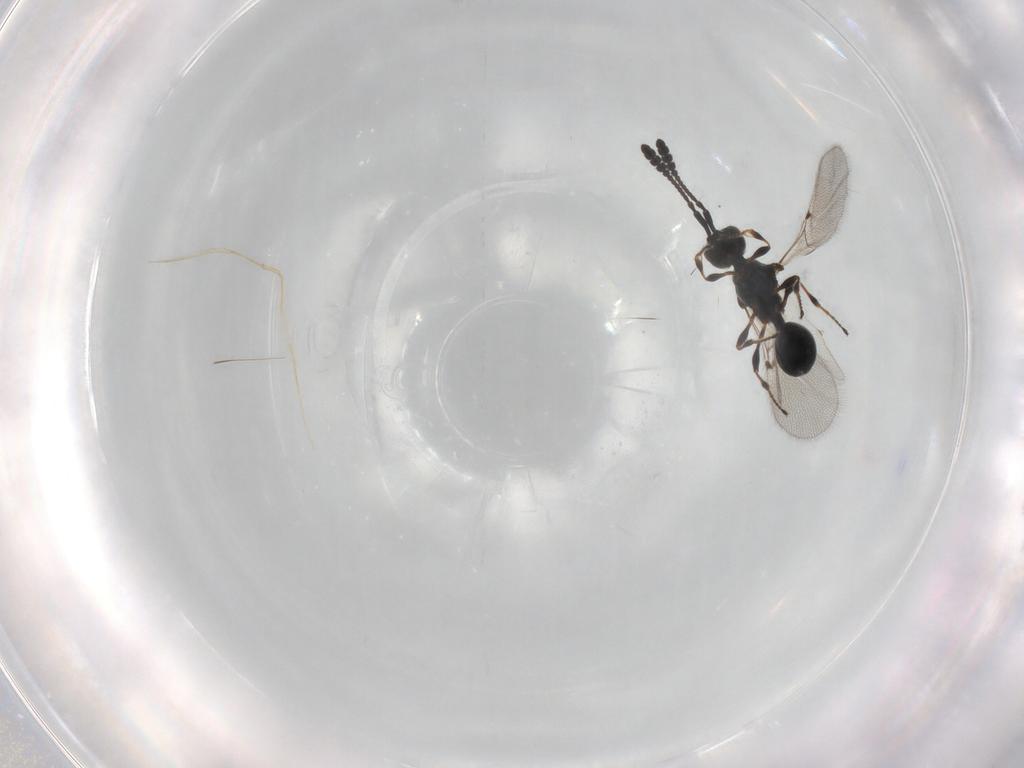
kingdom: Animalia
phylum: Arthropoda
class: Insecta
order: Hymenoptera
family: Diapriidae
